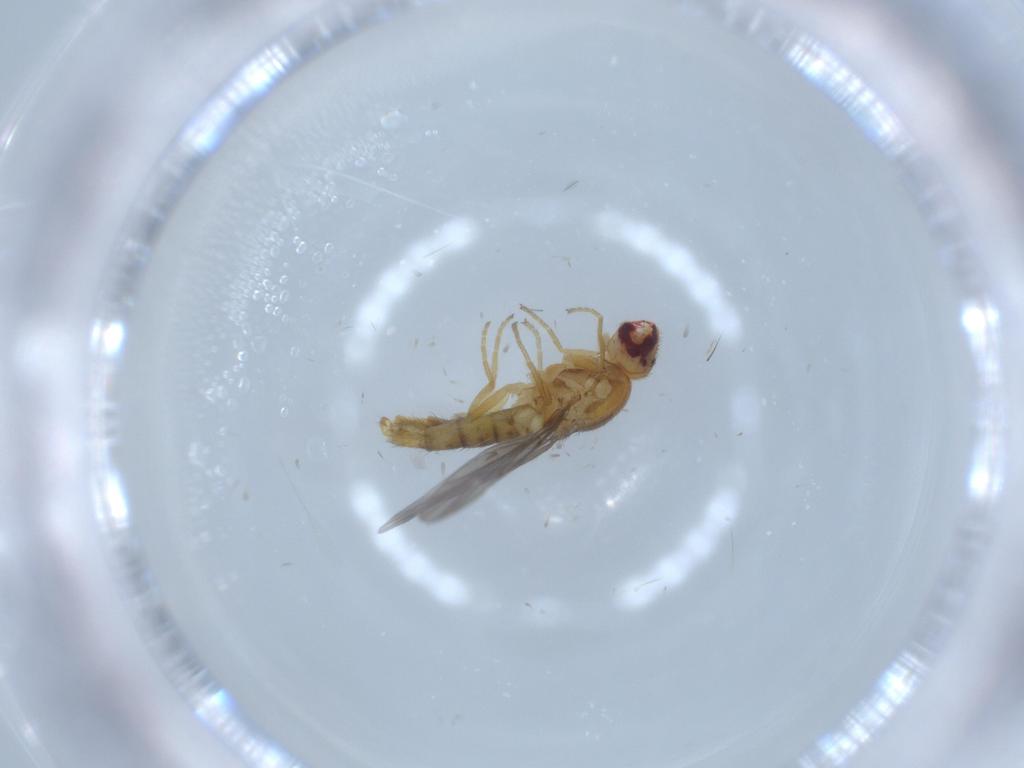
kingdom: Animalia
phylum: Arthropoda
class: Insecta
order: Diptera
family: Chloropidae
